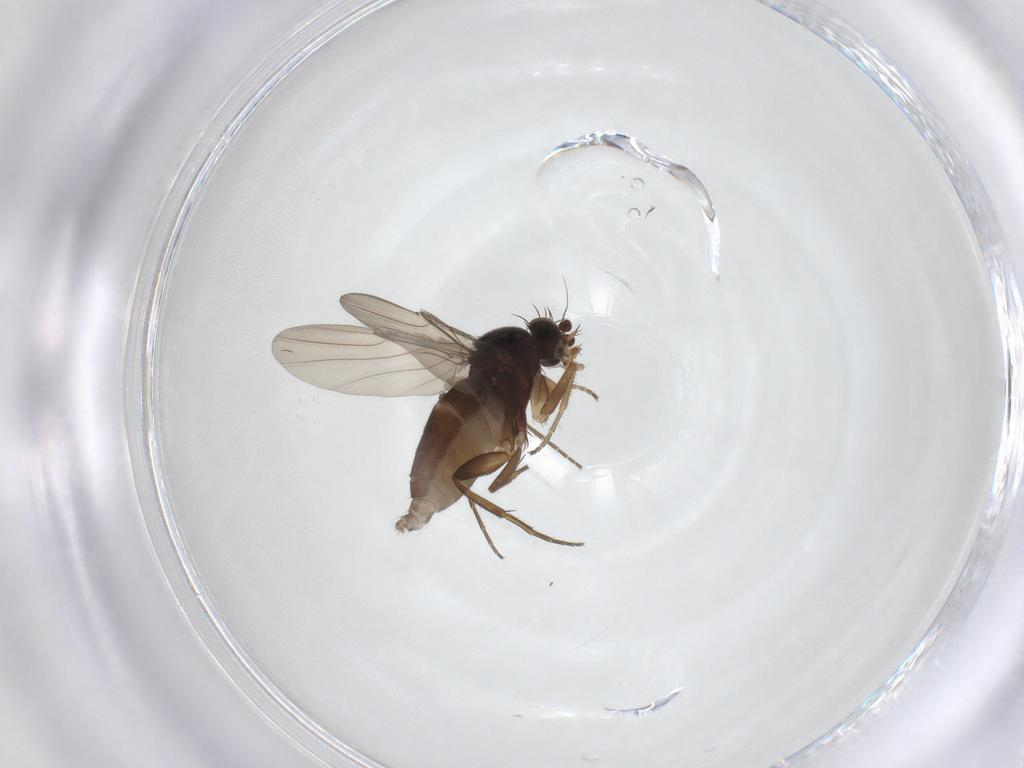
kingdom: Animalia
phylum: Arthropoda
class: Insecta
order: Diptera
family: Phoridae
